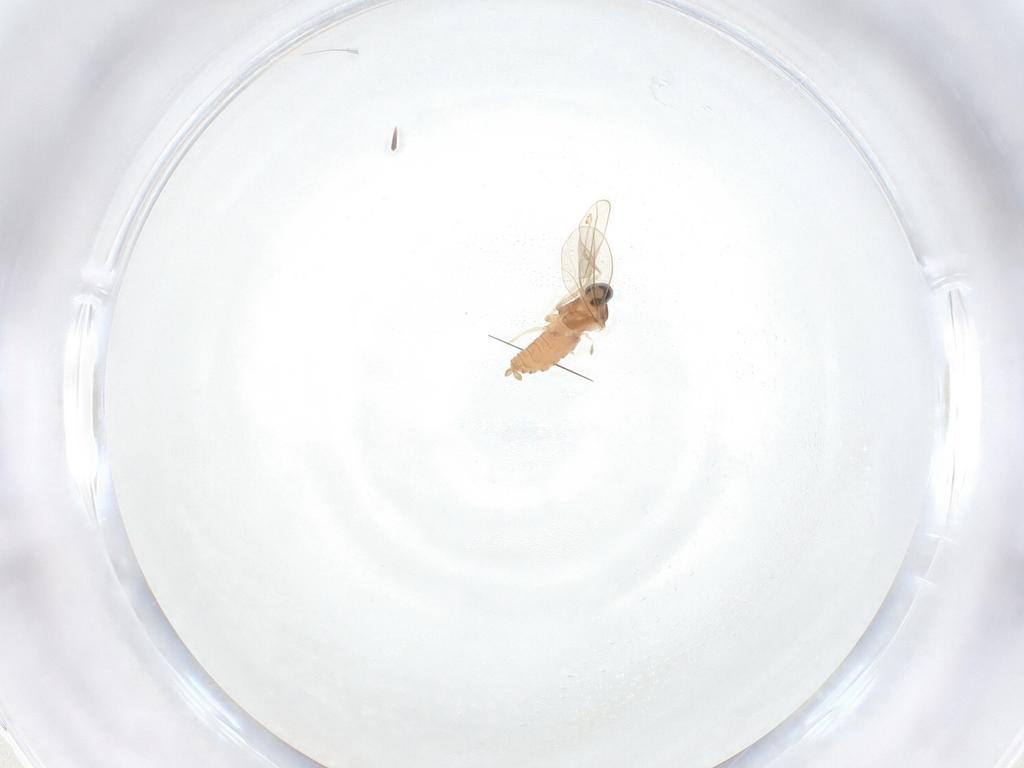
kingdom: Animalia
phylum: Arthropoda
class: Insecta
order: Diptera
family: Cecidomyiidae
